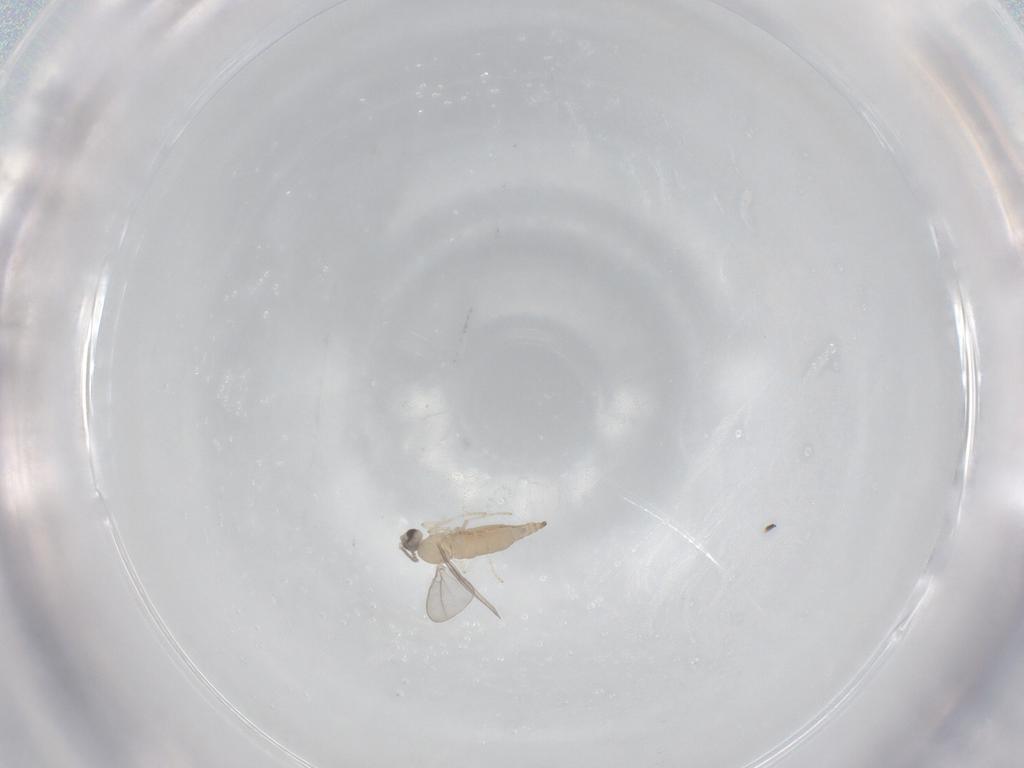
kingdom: Animalia
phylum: Arthropoda
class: Insecta
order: Diptera
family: Cecidomyiidae
